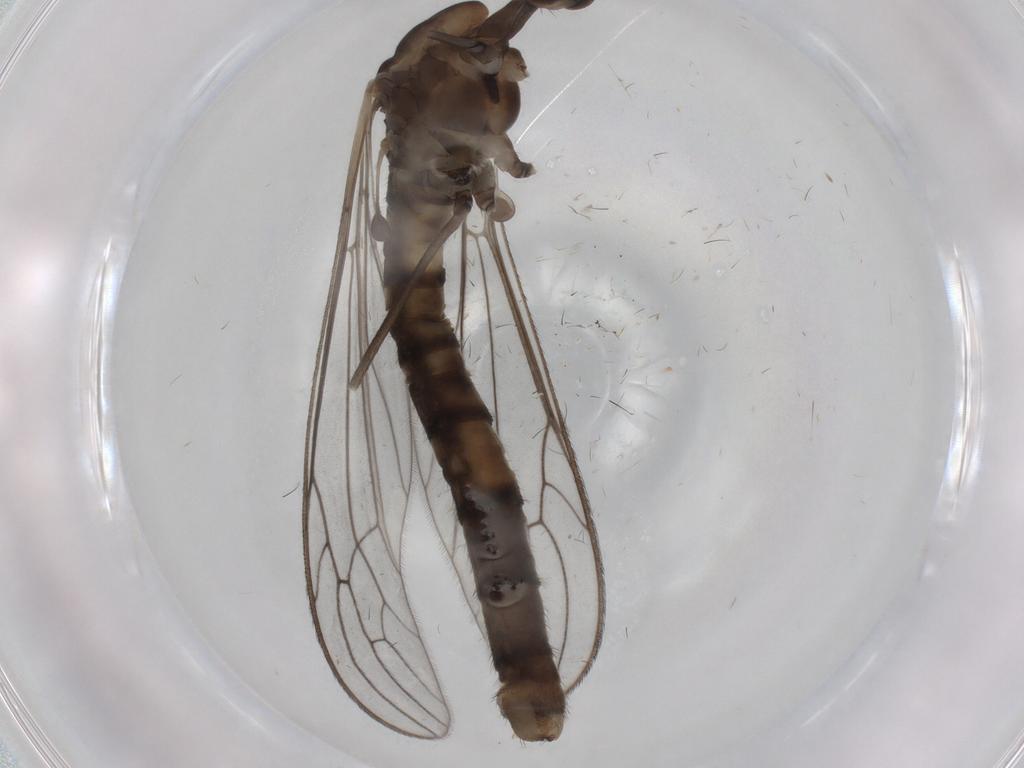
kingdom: Animalia
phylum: Arthropoda
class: Insecta
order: Diptera
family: Limoniidae
